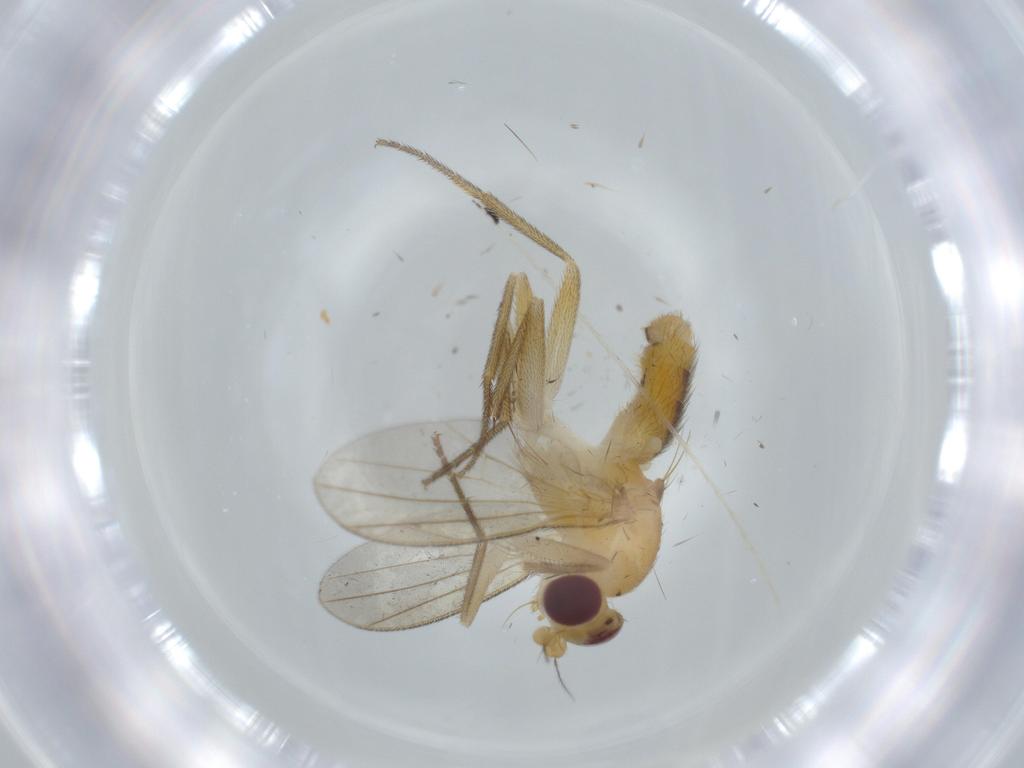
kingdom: Animalia
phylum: Arthropoda
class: Insecta
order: Diptera
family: Clusiidae
